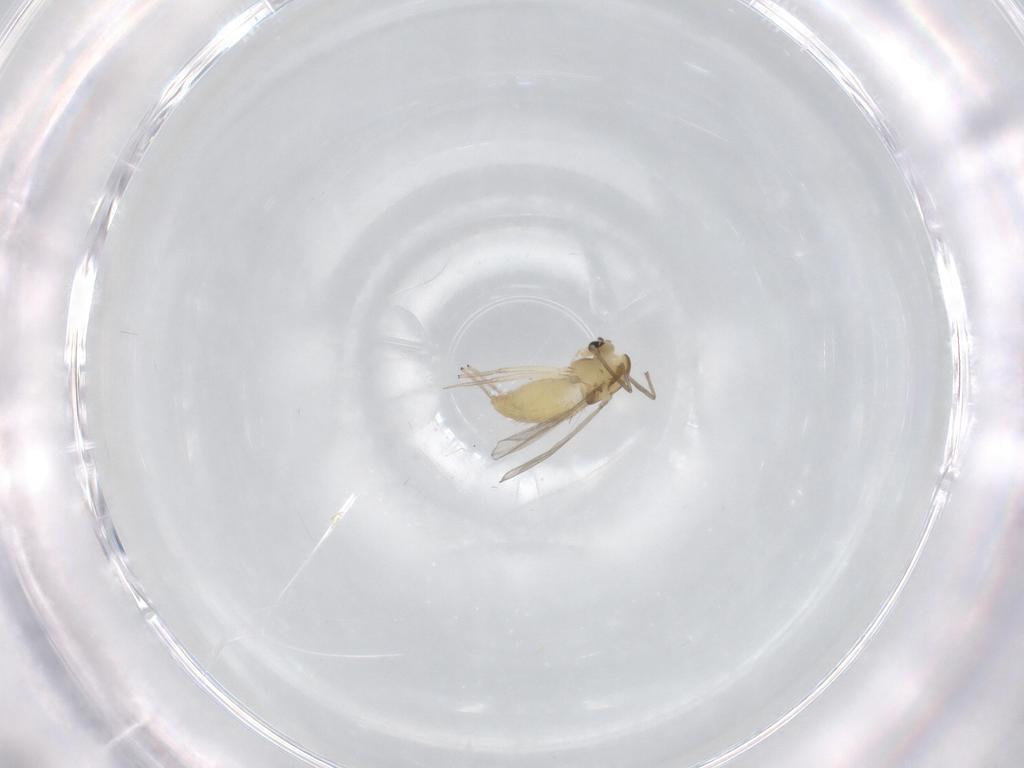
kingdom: Animalia
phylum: Arthropoda
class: Insecta
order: Diptera
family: Chironomidae
